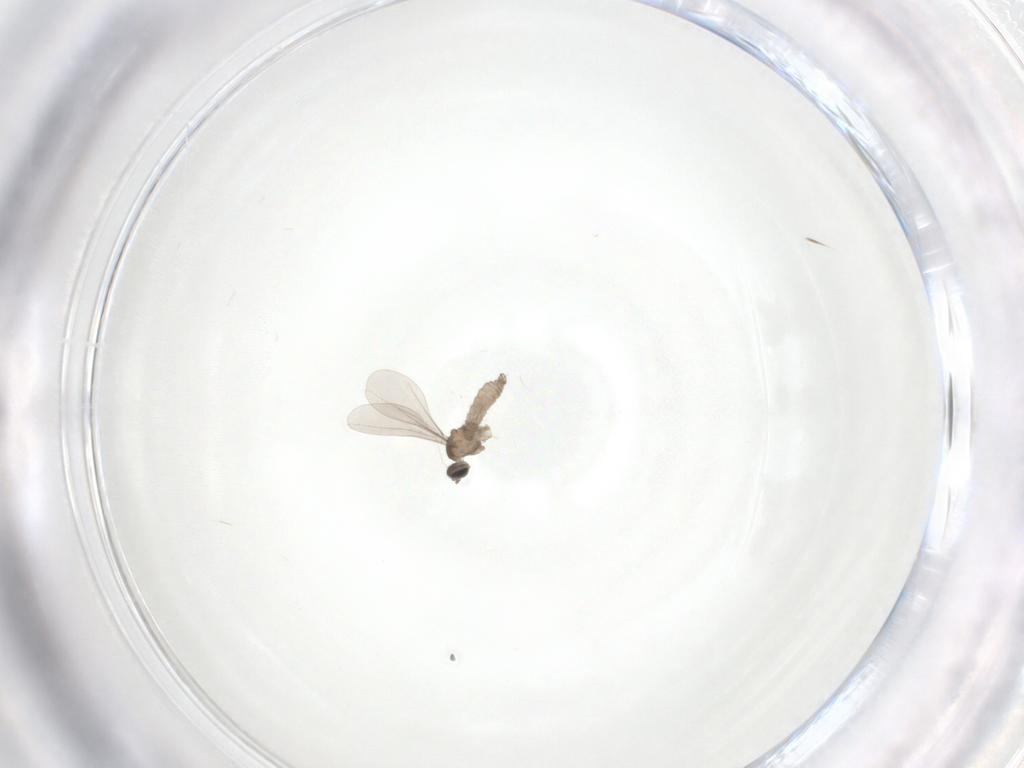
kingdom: Animalia
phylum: Arthropoda
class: Insecta
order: Diptera
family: Cecidomyiidae
